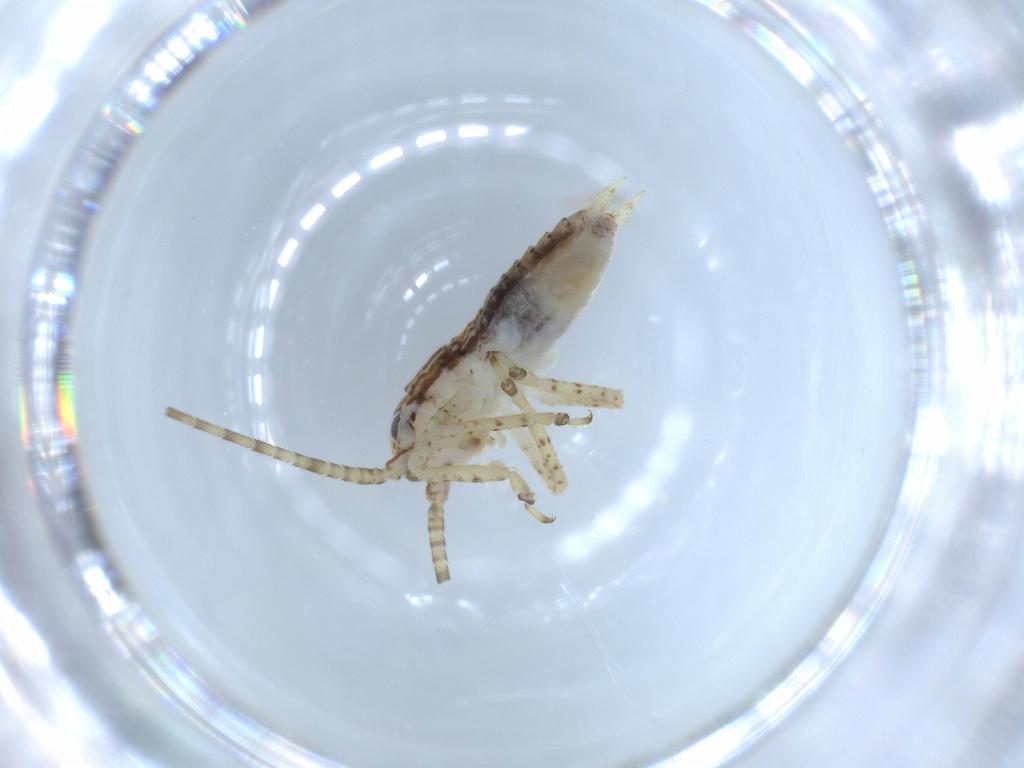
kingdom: Animalia
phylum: Arthropoda
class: Insecta
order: Orthoptera
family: Gryllidae
